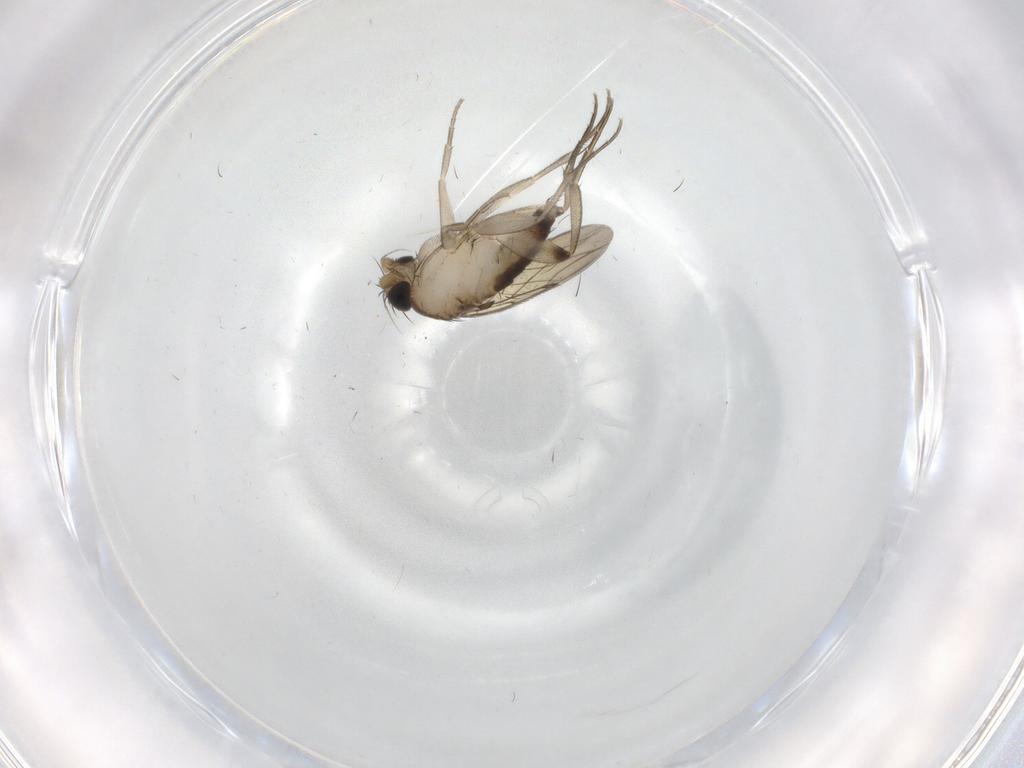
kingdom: Animalia
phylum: Arthropoda
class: Insecta
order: Diptera
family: Phoridae
